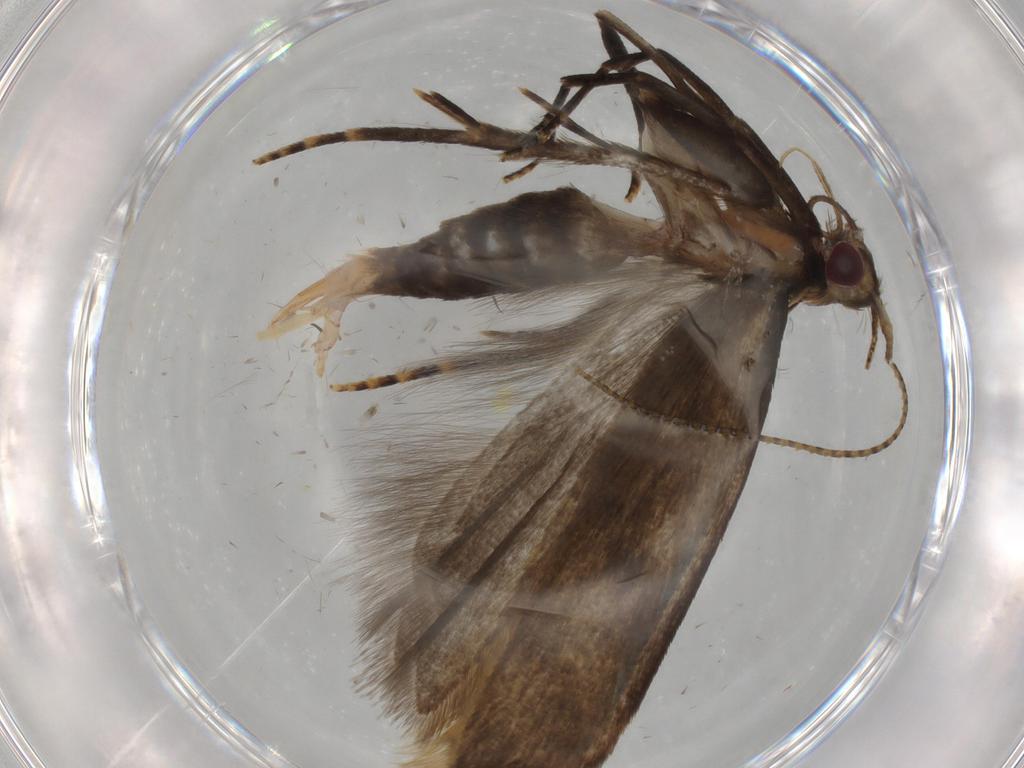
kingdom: Animalia
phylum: Arthropoda
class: Insecta
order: Lepidoptera
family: Gelechiidae
